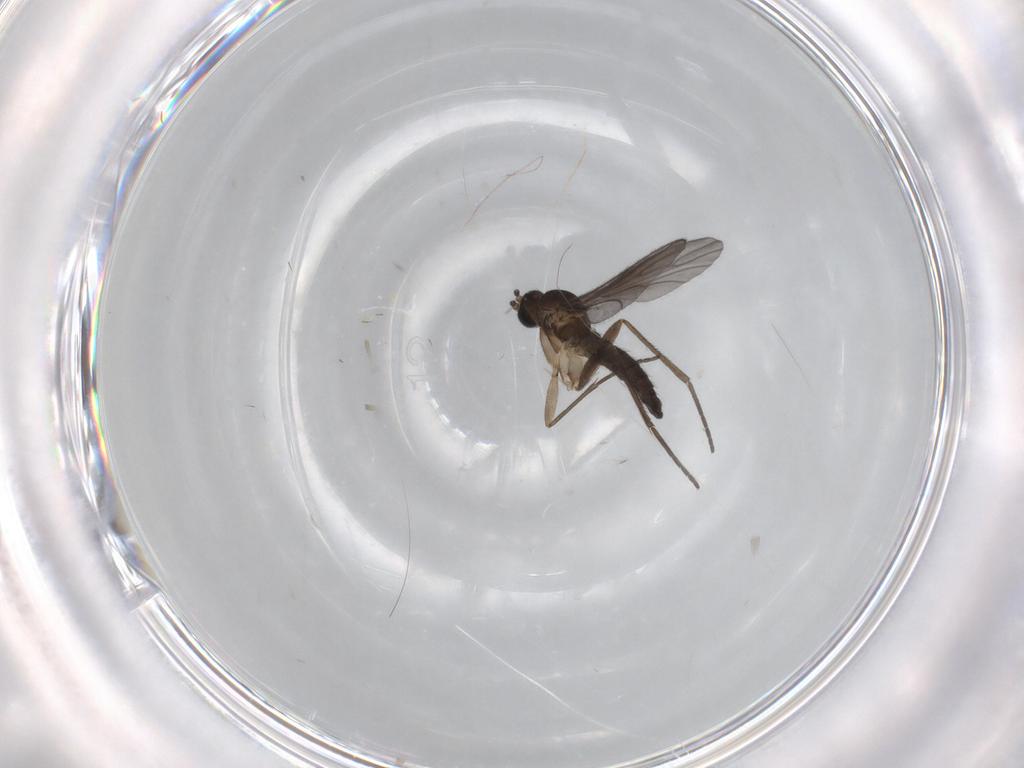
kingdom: Animalia
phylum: Arthropoda
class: Insecta
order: Diptera
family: Sciaridae
